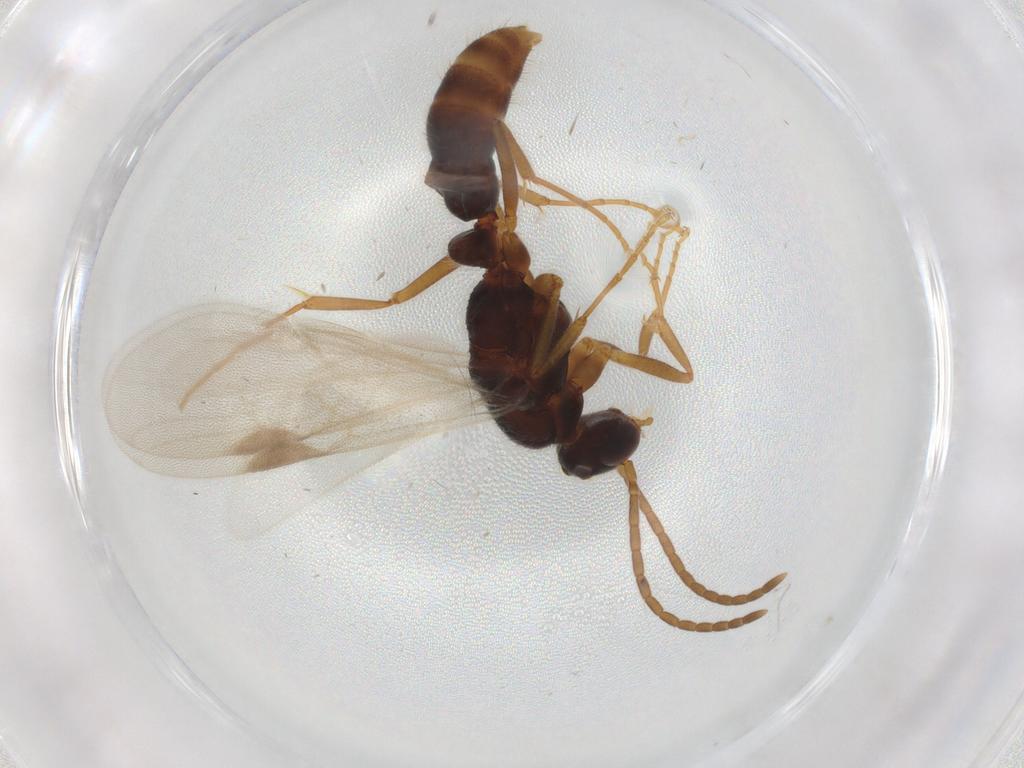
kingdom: Animalia
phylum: Arthropoda
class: Insecta
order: Hymenoptera
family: Formicidae
